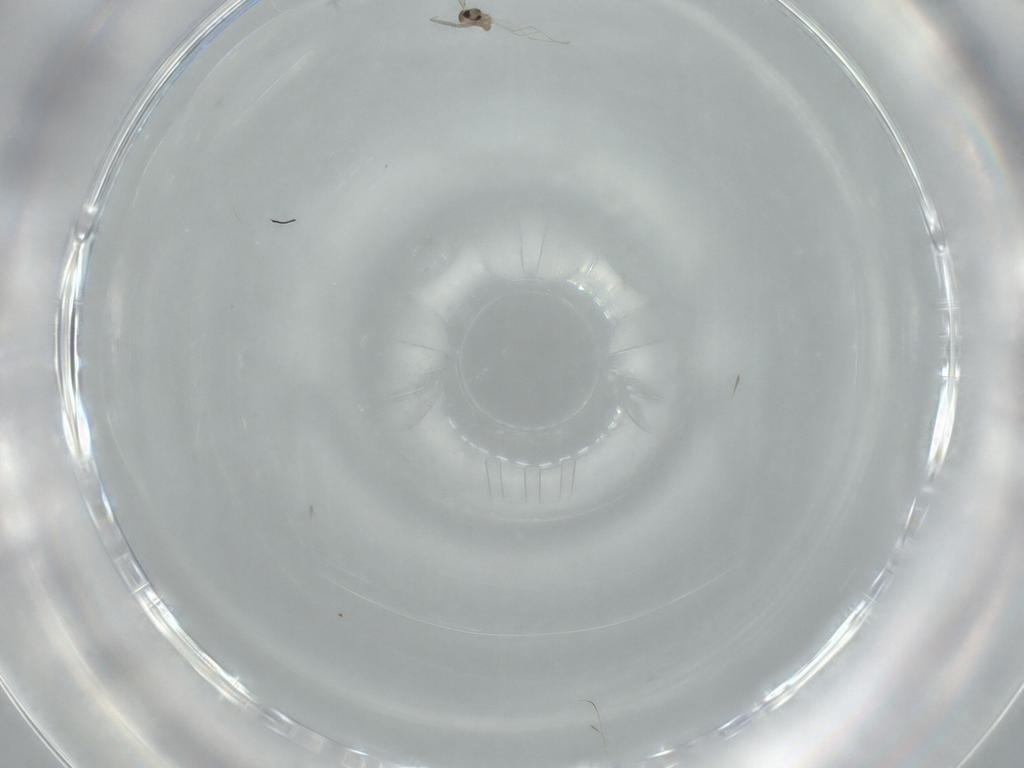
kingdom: Animalia
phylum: Arthropoda
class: Insecta
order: Diptera
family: Cecidomyiidae
